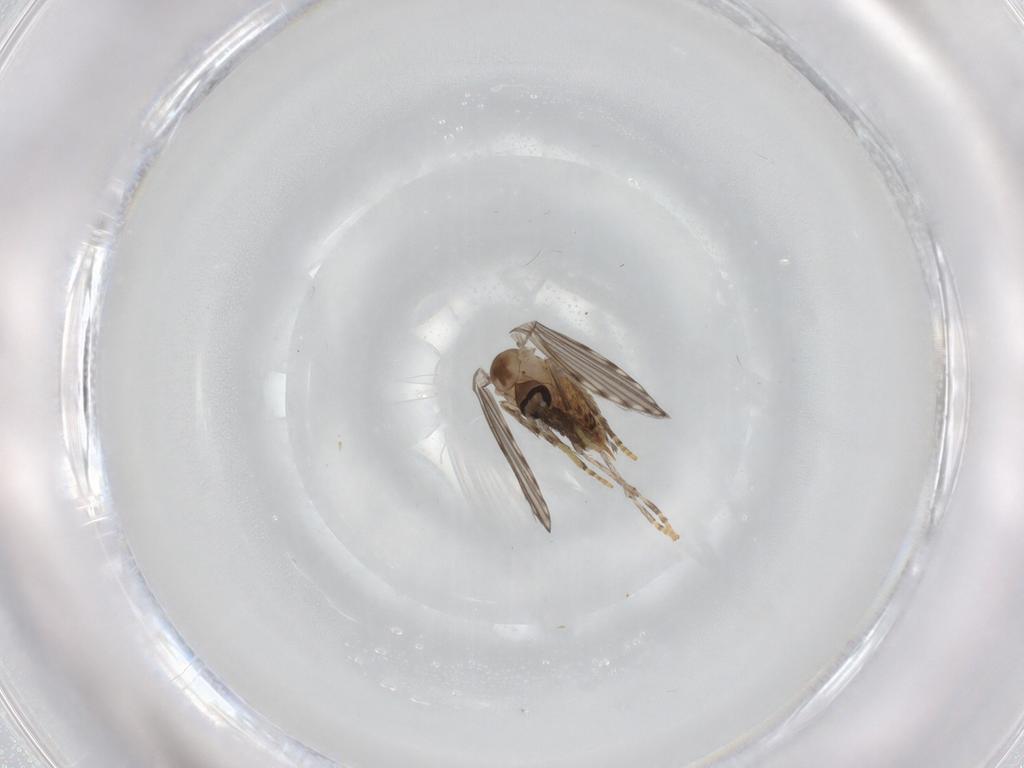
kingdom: Animalia
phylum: Arthropoda
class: Insecta
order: Diptera
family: Psychodidae
